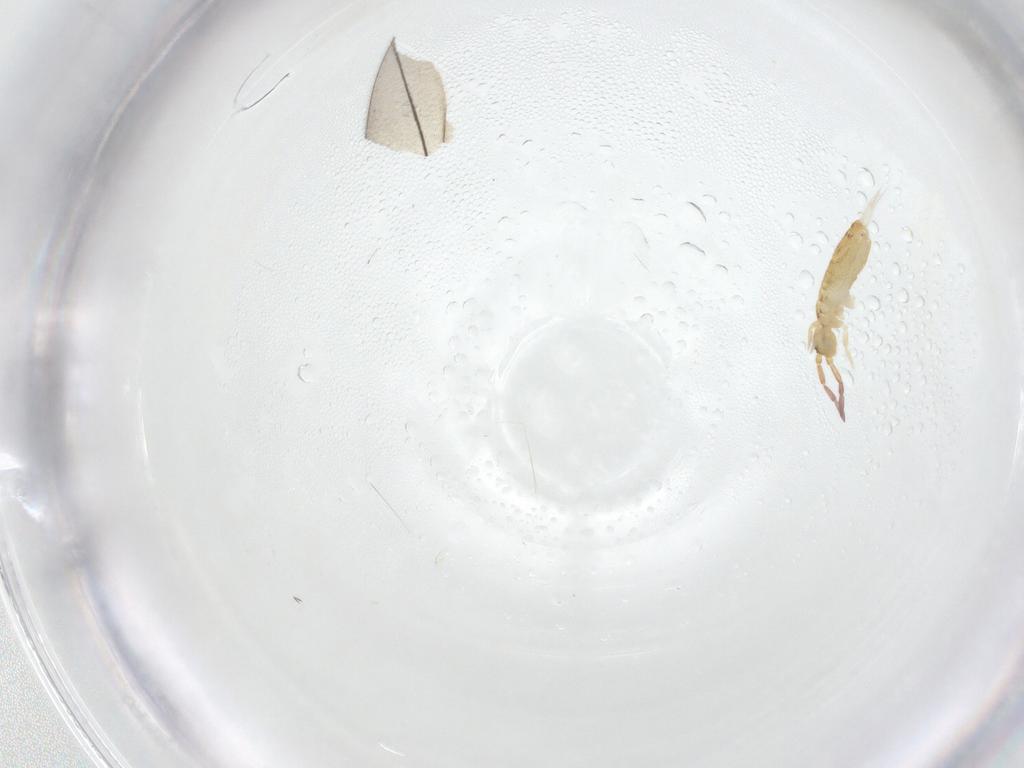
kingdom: Animalia
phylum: Arthropoda
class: Collembola
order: Entomobryomorpha
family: Entomobryidae
